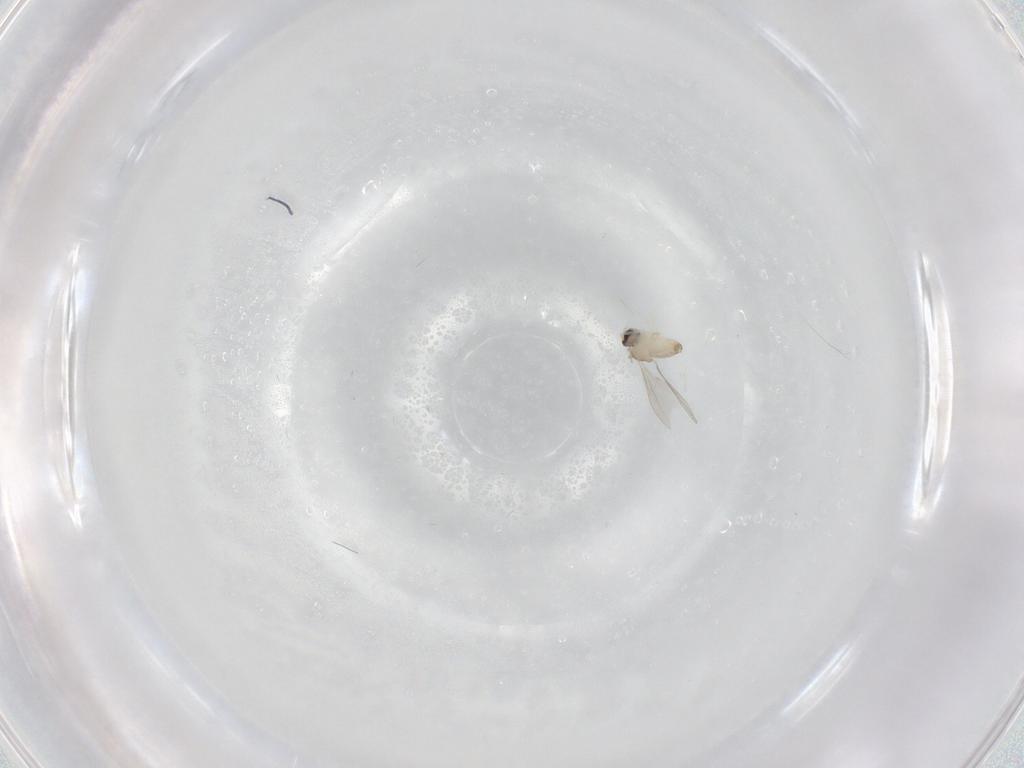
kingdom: Animalia
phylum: Arthropoda
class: Insecta
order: Diptera
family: Cecidomyiidae
